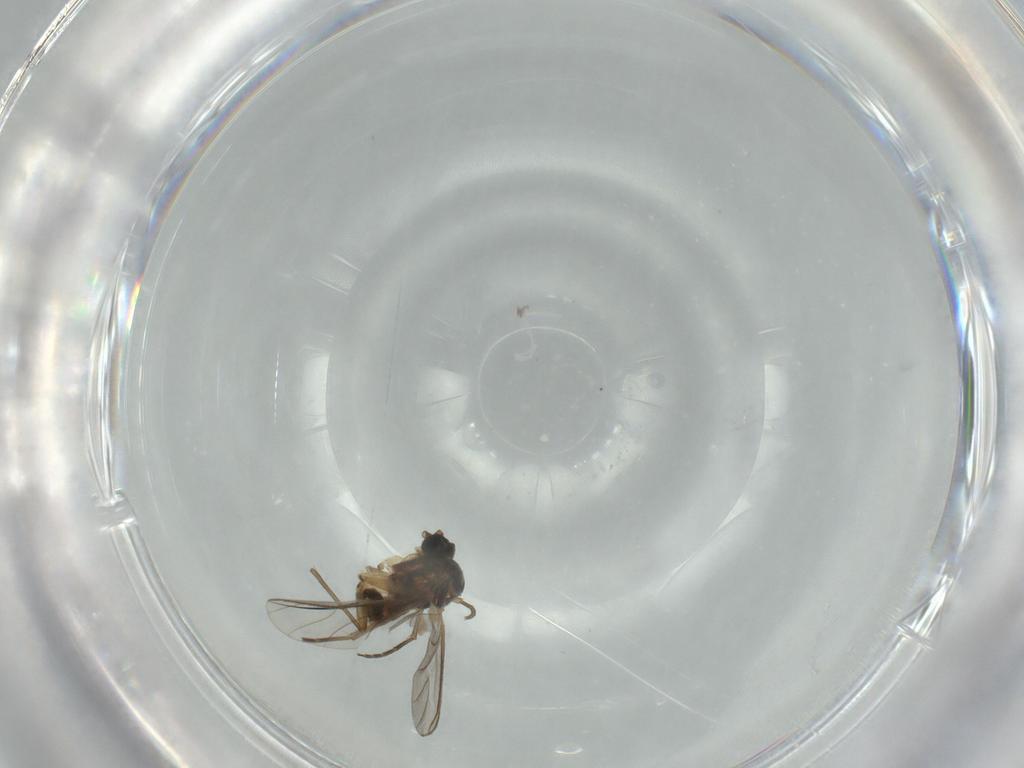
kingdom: Animalia
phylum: Arthropoda
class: Insecta
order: Diptera
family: Sciaridae
